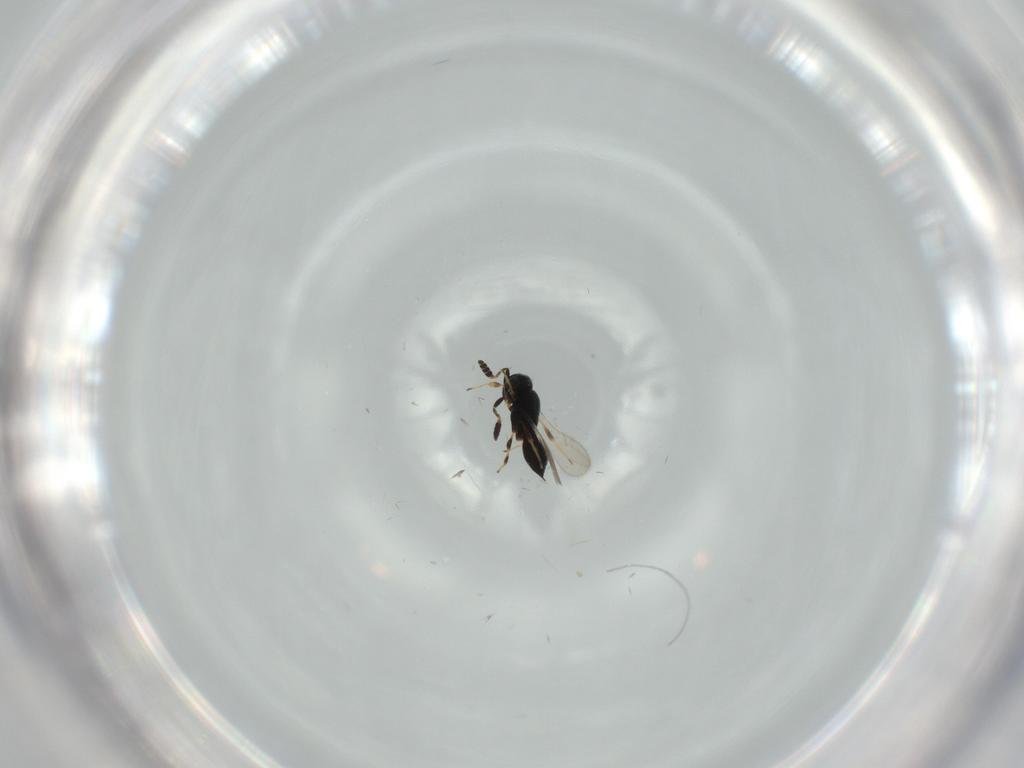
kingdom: Animalia
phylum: Arthropoda
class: Insecta
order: Hymenoptera
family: Scelionidae
